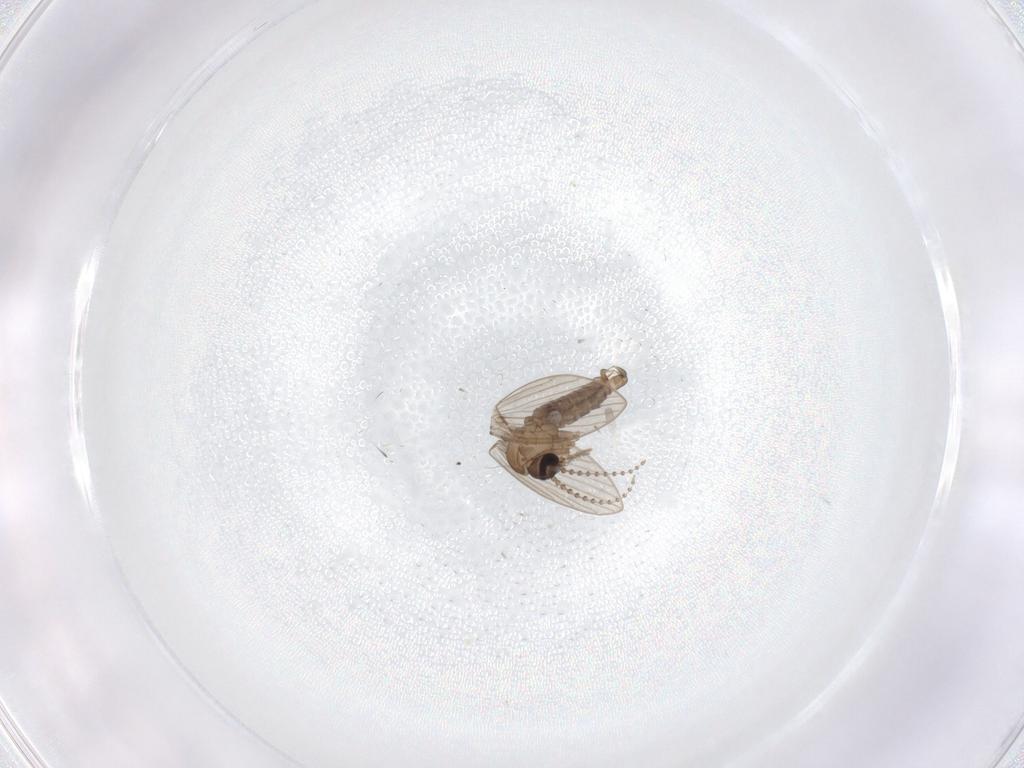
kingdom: Animalia
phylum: Arthropoda
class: Insecta
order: Diptera
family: Psychodidae
